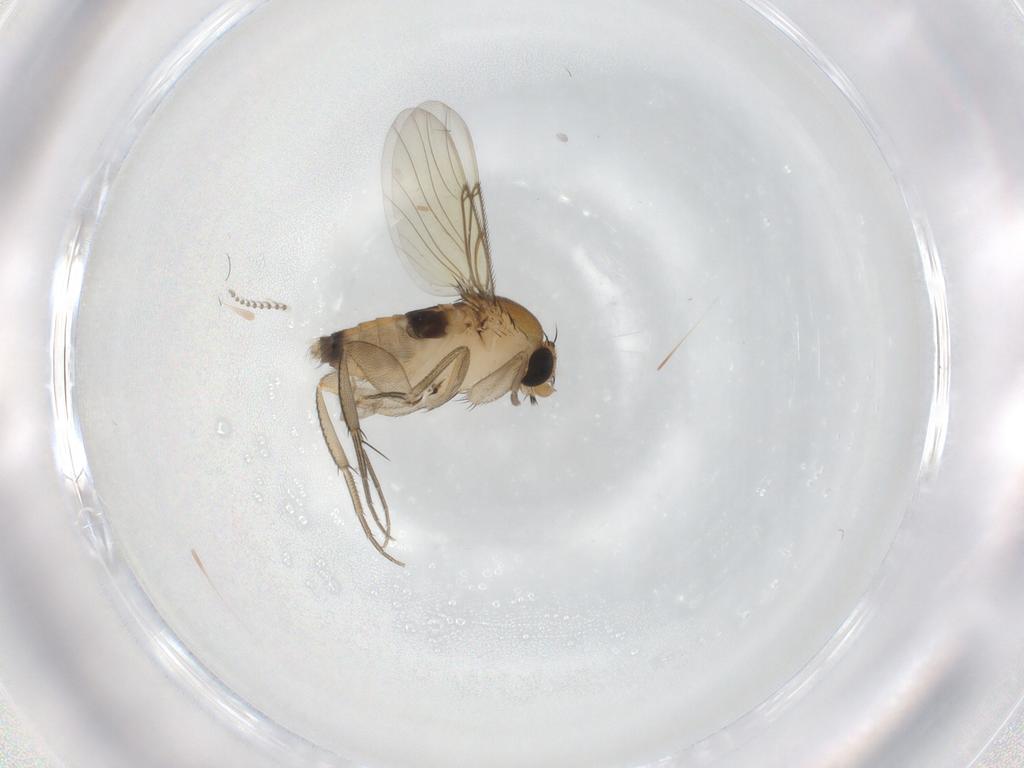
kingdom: Animalia
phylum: Arthropoda
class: Insecta
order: Diptera
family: Phoridae
